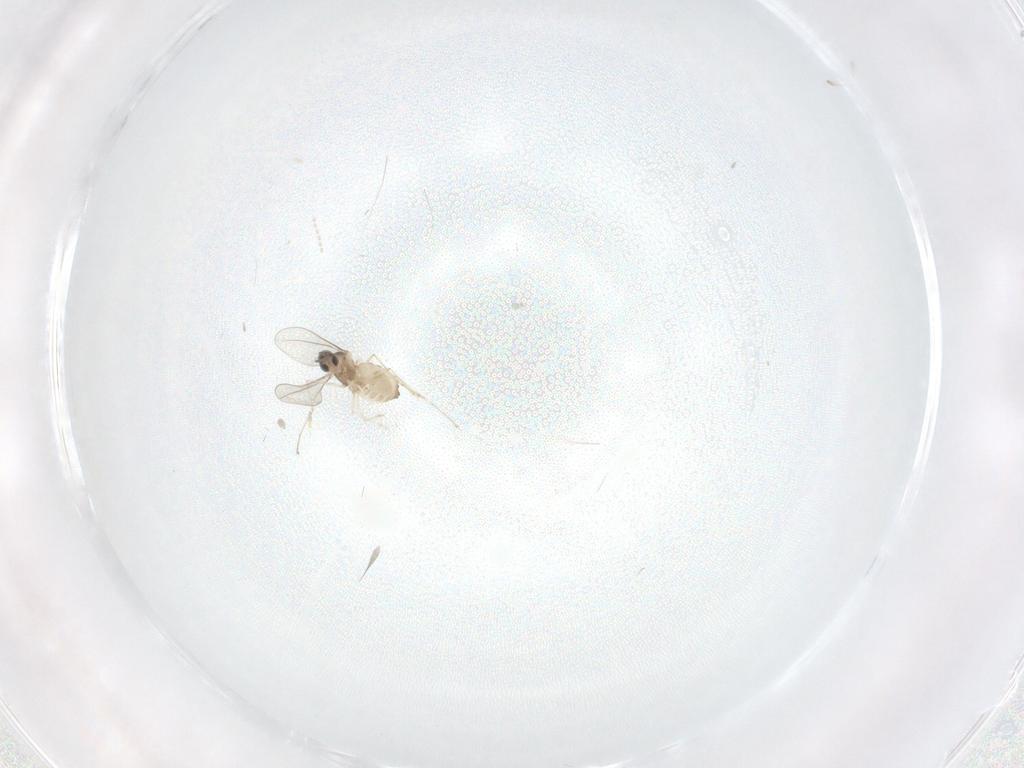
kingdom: Animalia
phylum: Arthropoda
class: Insecta
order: Diptera
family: Cecidomyiidae
